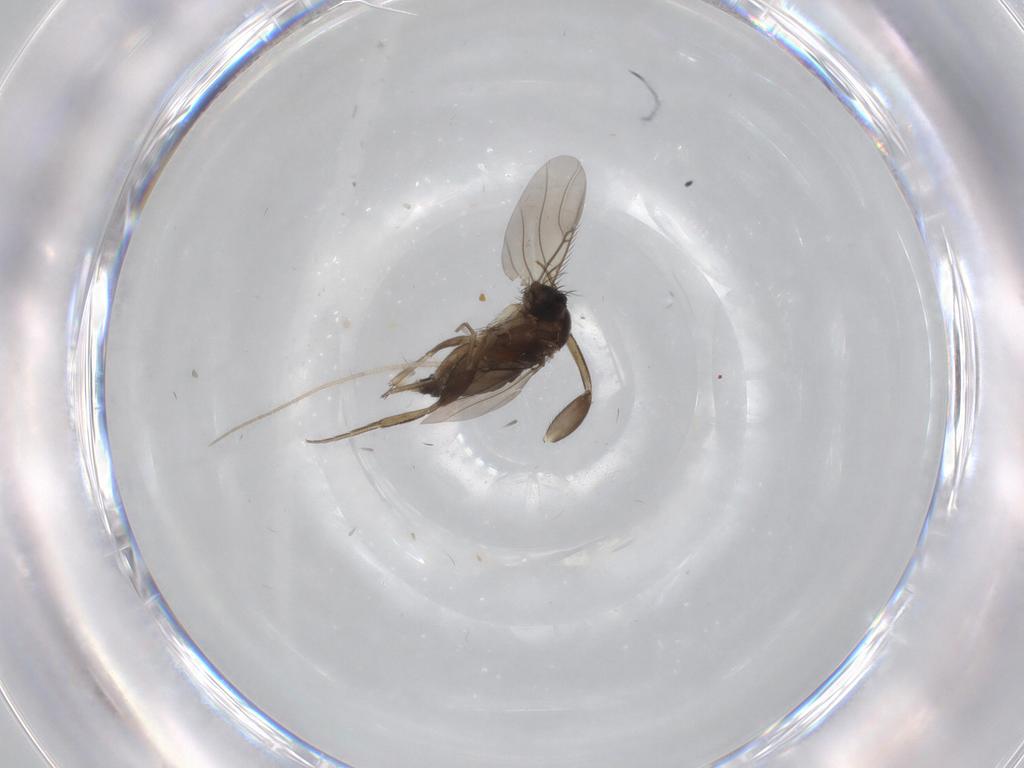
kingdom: Animalia
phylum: Arthropoda
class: Insecta
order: Diptera
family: Phoridae
